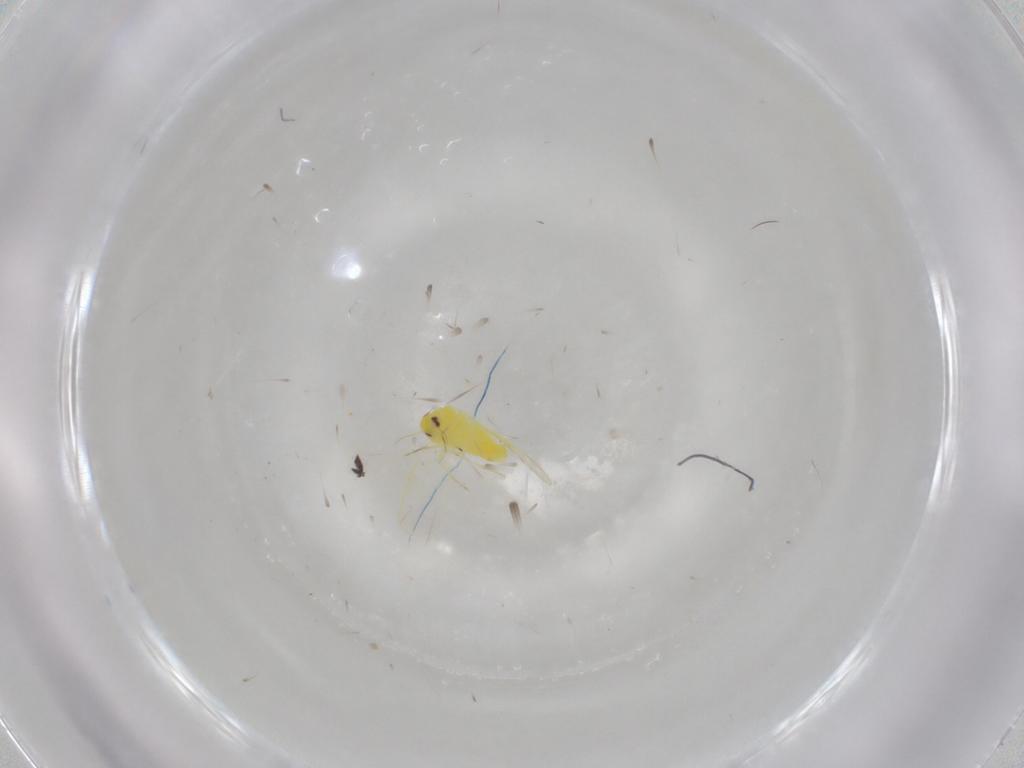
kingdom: Animalia
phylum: Arthropoda
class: Insecta
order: Hemiptera
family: Aleyrodidae
